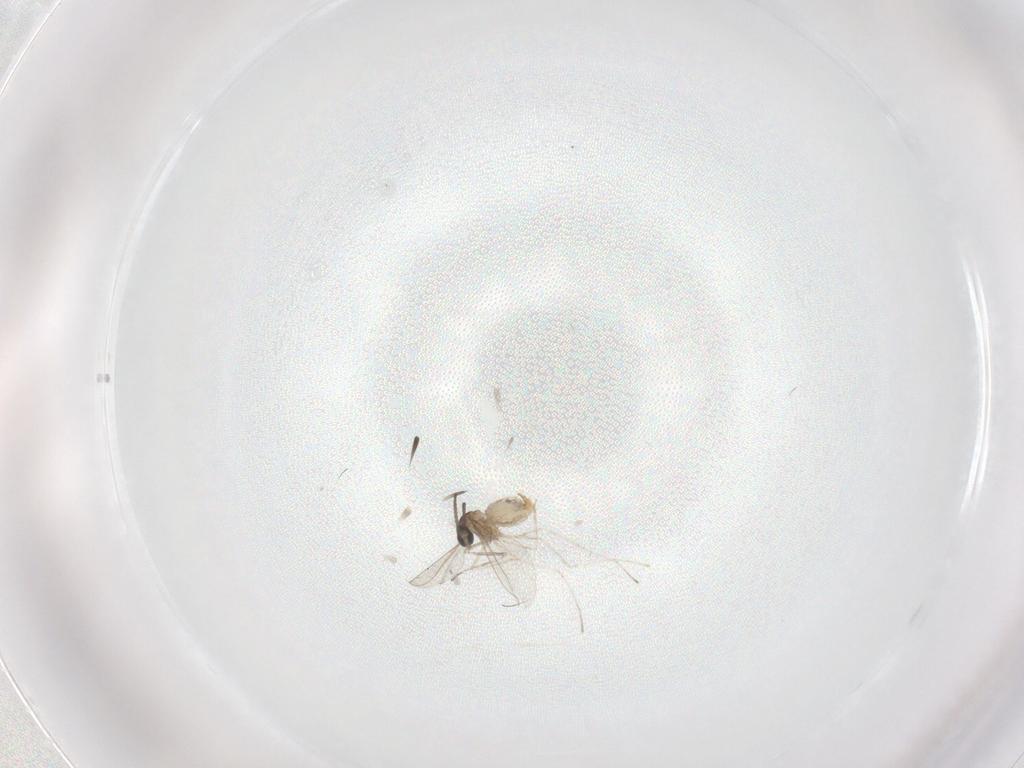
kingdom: Animalia
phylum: Arthropoda
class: Insecta
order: Diptera
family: Cecidomyiidae
